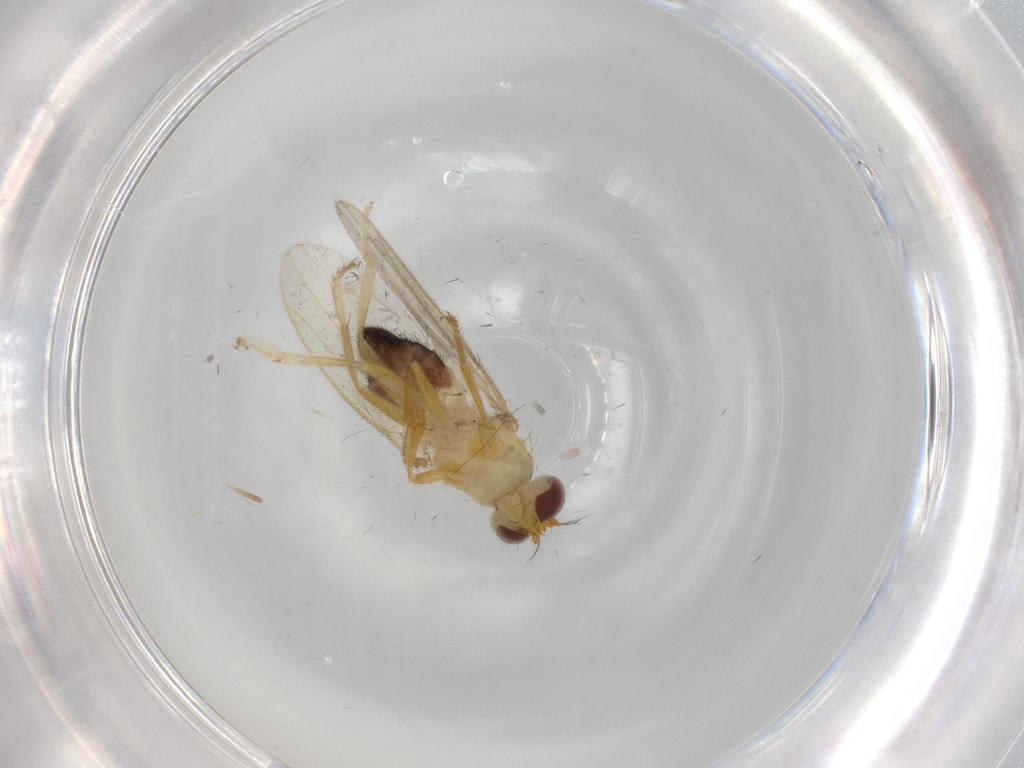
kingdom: Animalia
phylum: Arthropoda
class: Insecta
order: Diptera
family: Periscelididae
